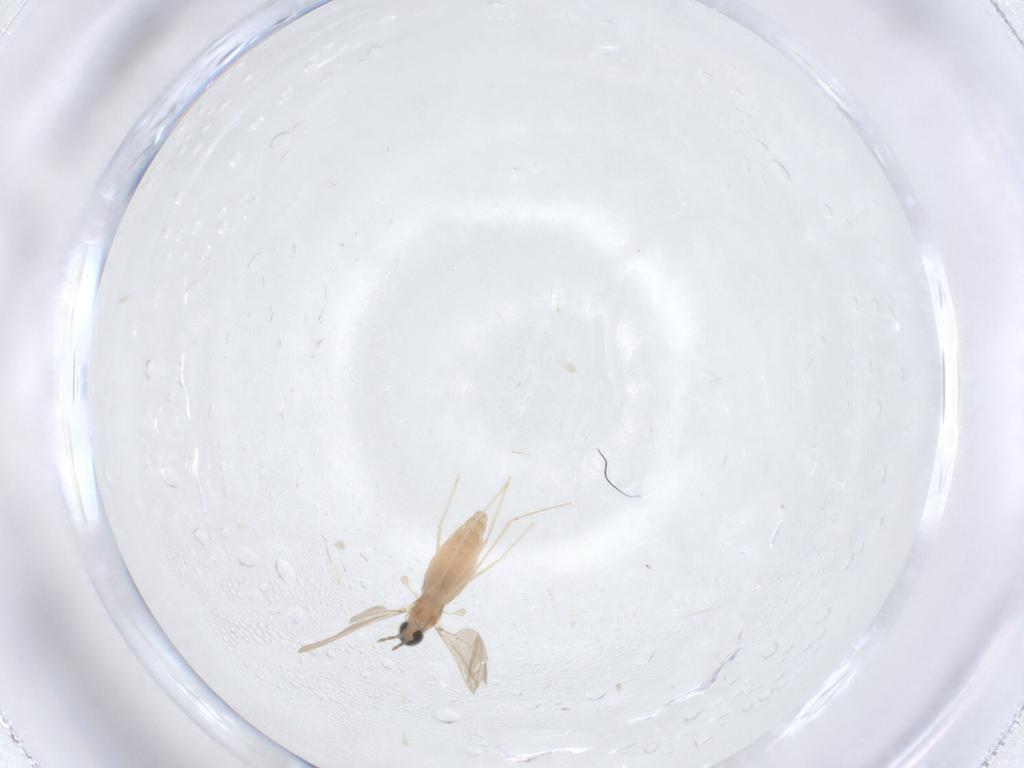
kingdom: Animalia
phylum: Arthropoda
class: Insecta
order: Diptera
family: Cecidomyiidae
